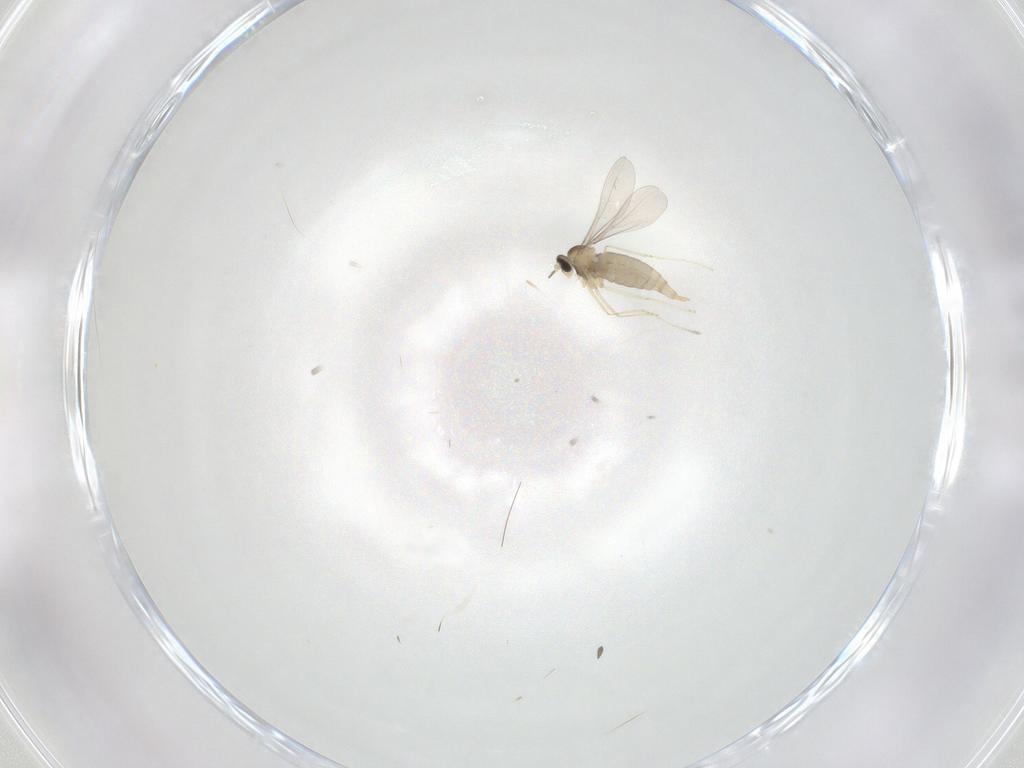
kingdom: Animalia
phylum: Arthropoda
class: Insecta
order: Diptera
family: Cecidomyiidae
